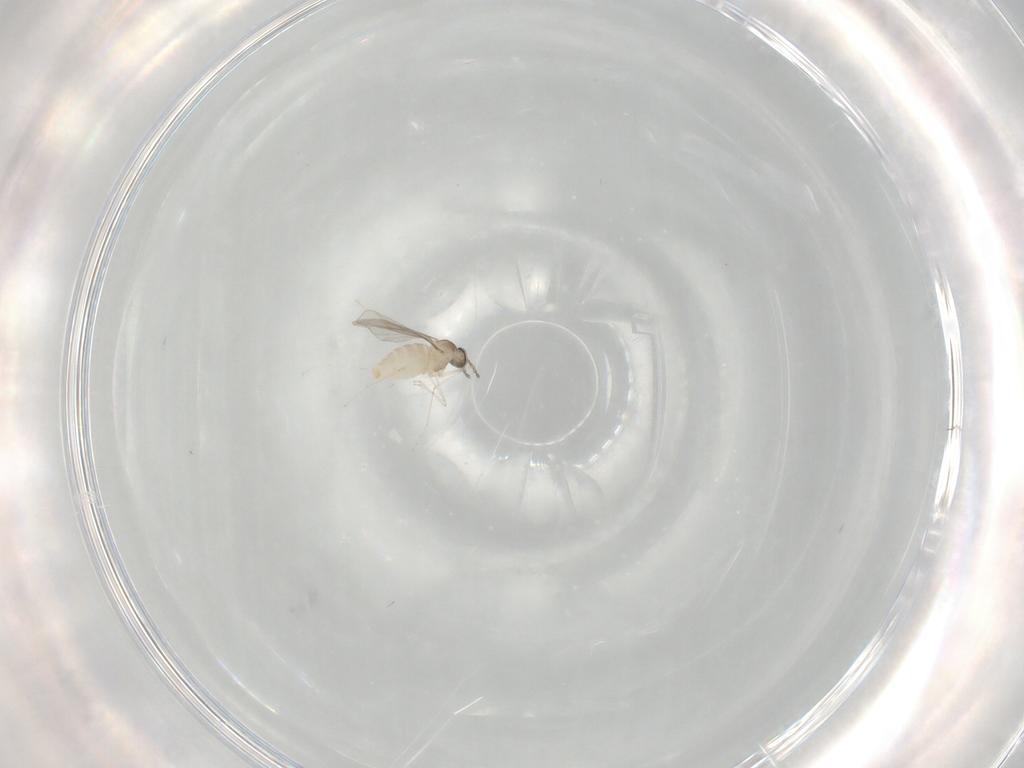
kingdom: Animalia
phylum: Arthropoda
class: Insecta
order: Diptera
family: Cecidomyiidae
